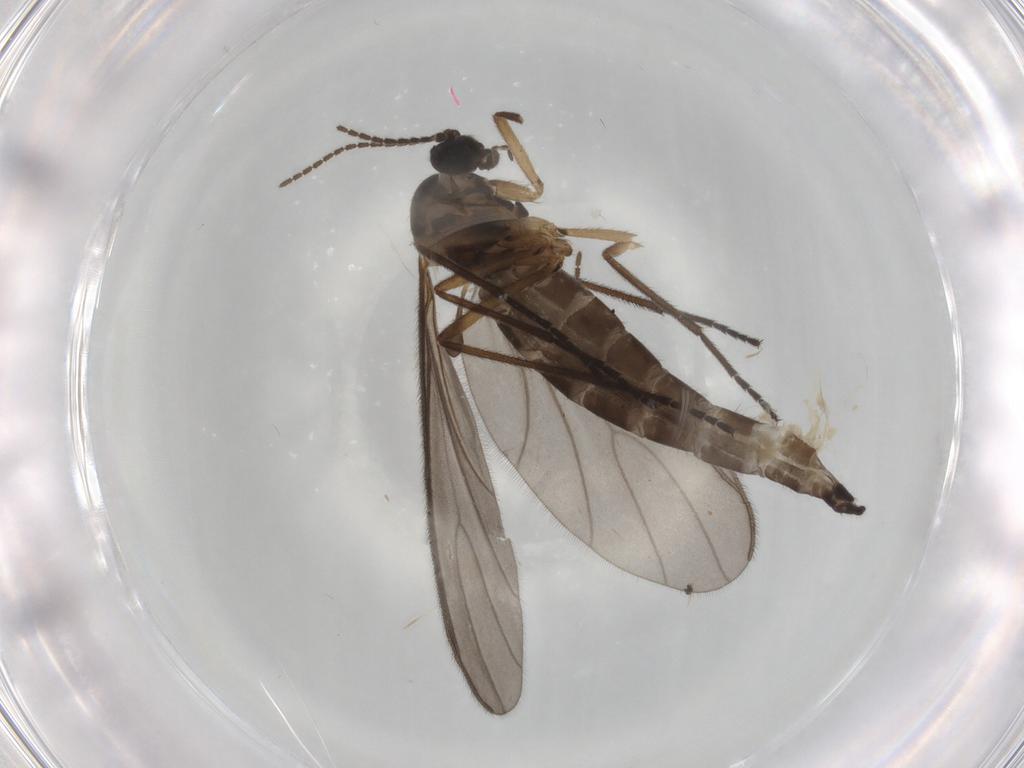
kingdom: Animalia
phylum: Arthropoda
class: Insecta
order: Diptera
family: Sciaridae
